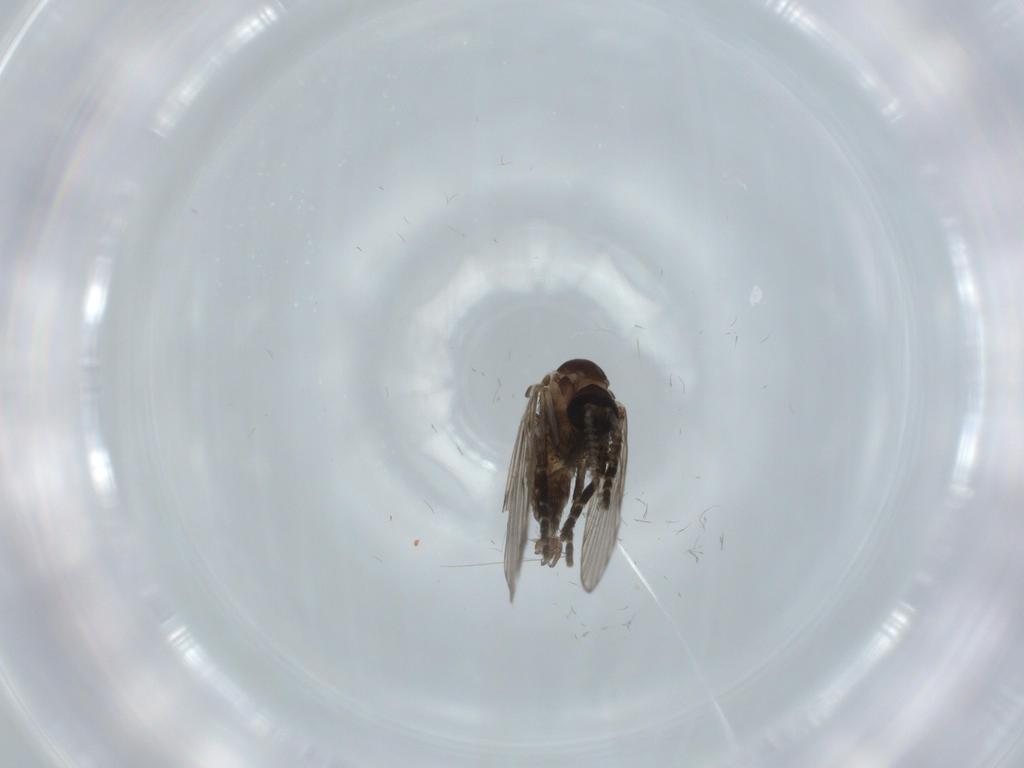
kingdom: Animalia
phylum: Arthropoda
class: Insecta
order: Diptera
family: Psychodidae
